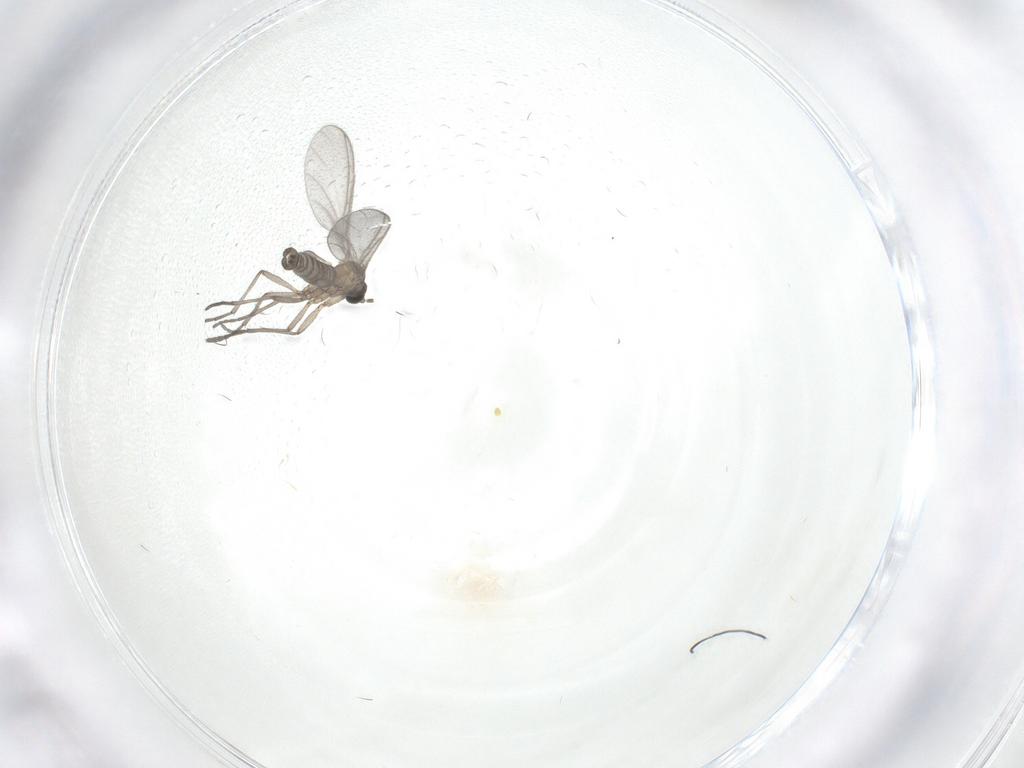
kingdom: Animalia
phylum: Arthropoda
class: Insecta
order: Diptera
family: Sciaridae
